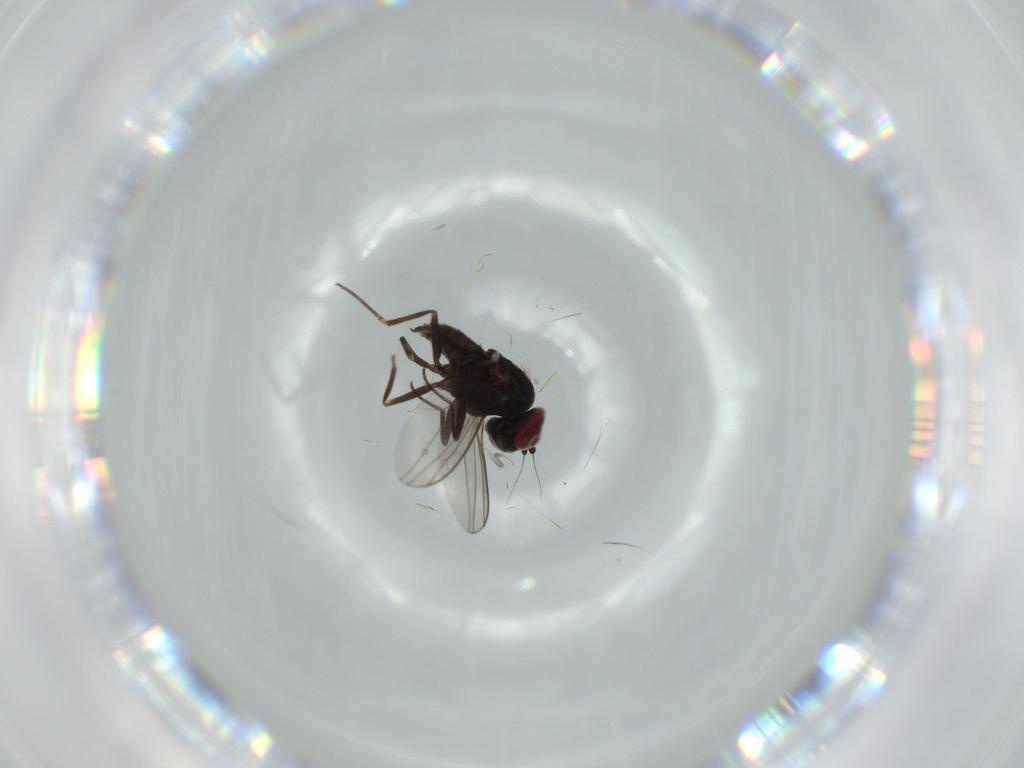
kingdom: Animalia
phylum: Arthropoda
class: Insecta
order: Diptera
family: Dolichopodidae
